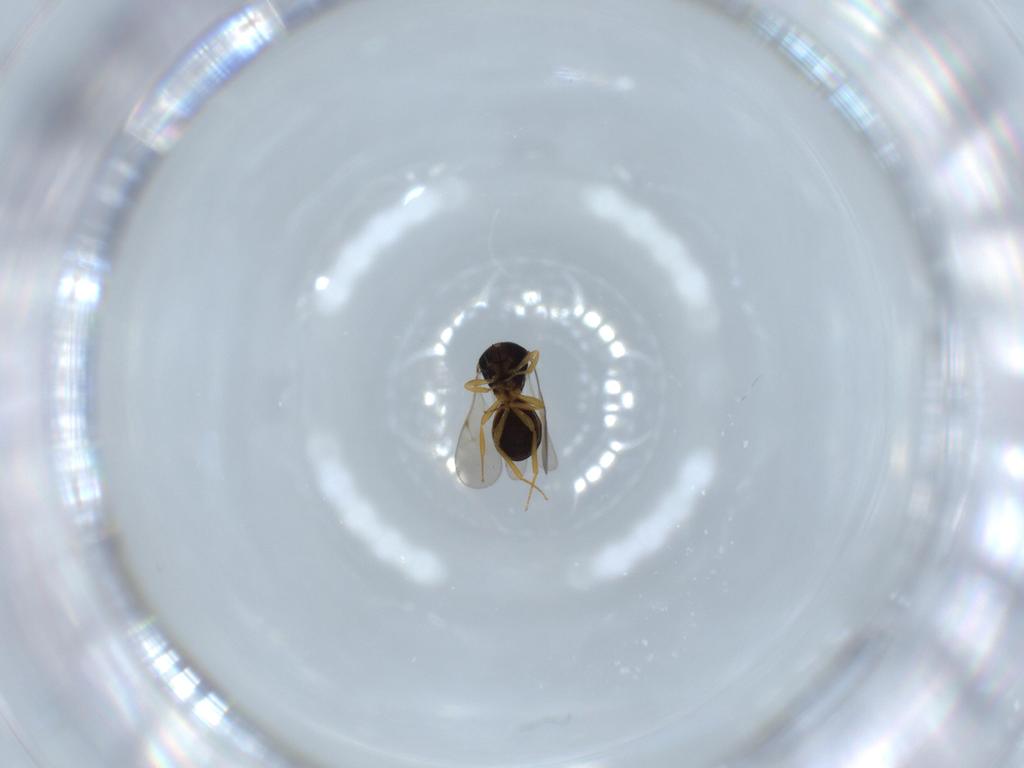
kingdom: Animalia
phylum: Arthropoda
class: Insecta
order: Hymenoptera
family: Scelionidae
